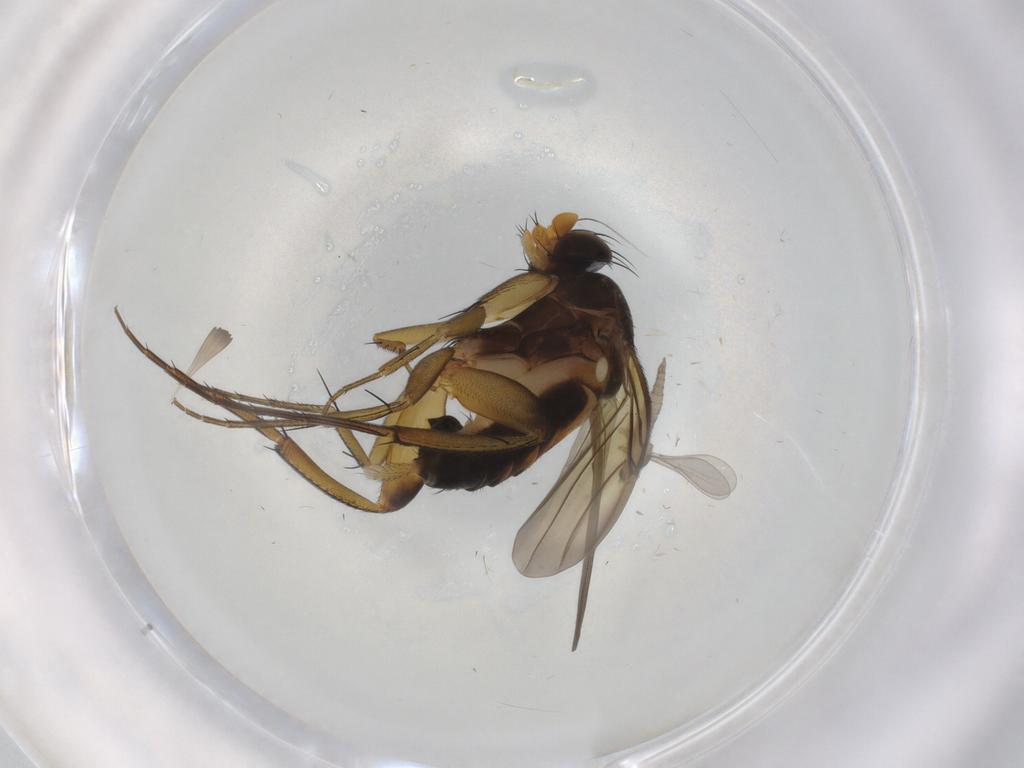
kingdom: Animalia
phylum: Arthropoda
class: Insecta
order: Diptera
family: Phoridae
